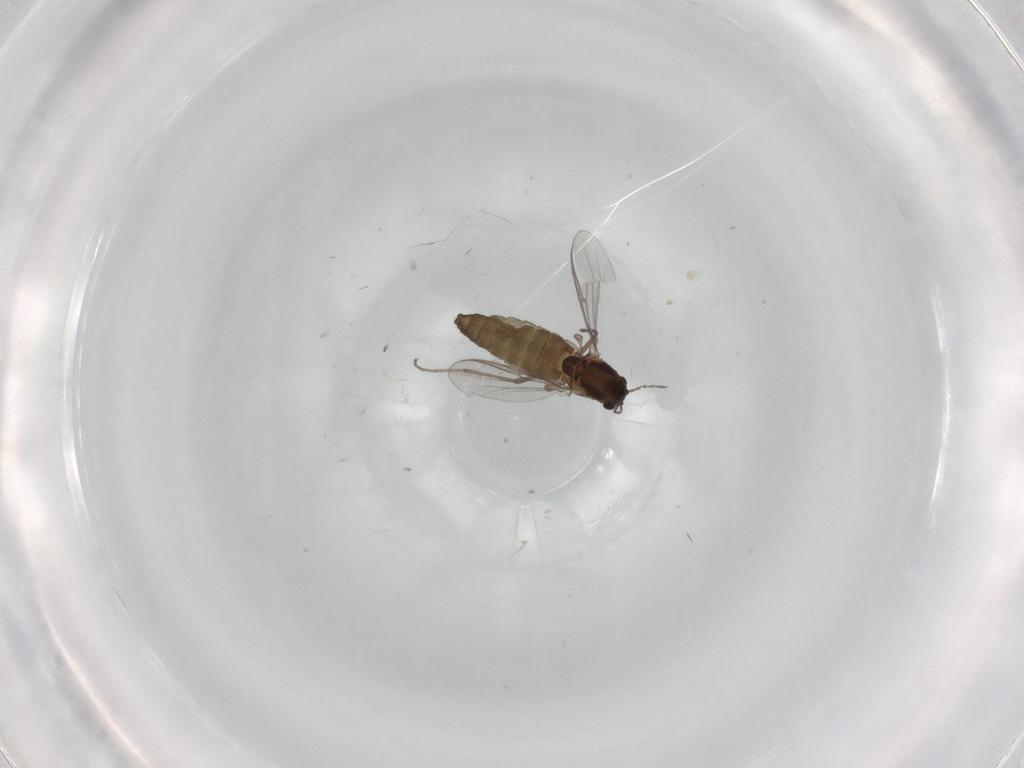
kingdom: Animalia
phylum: Arthropoda
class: Insecta
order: Diptera
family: Chironomidae
